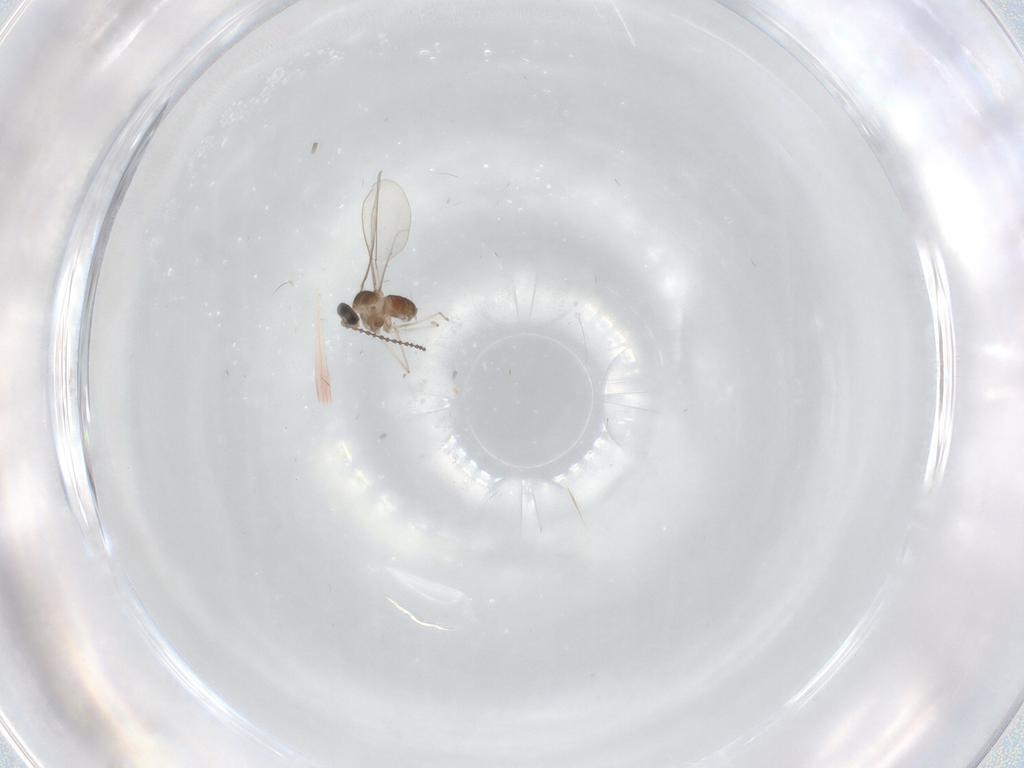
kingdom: Animalia
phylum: Arthropoda
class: Insecta
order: Diptera
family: Cecidomyiidae
